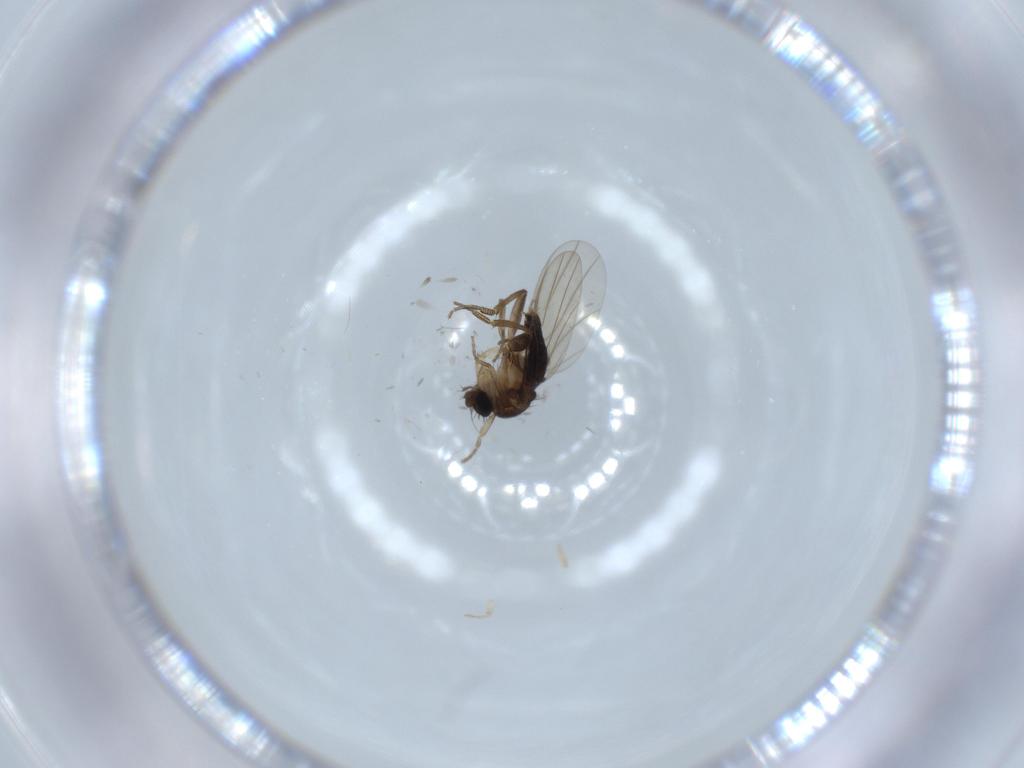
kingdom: Animalia
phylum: Arthropoda
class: Insecta
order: Diptera
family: Phoridae
